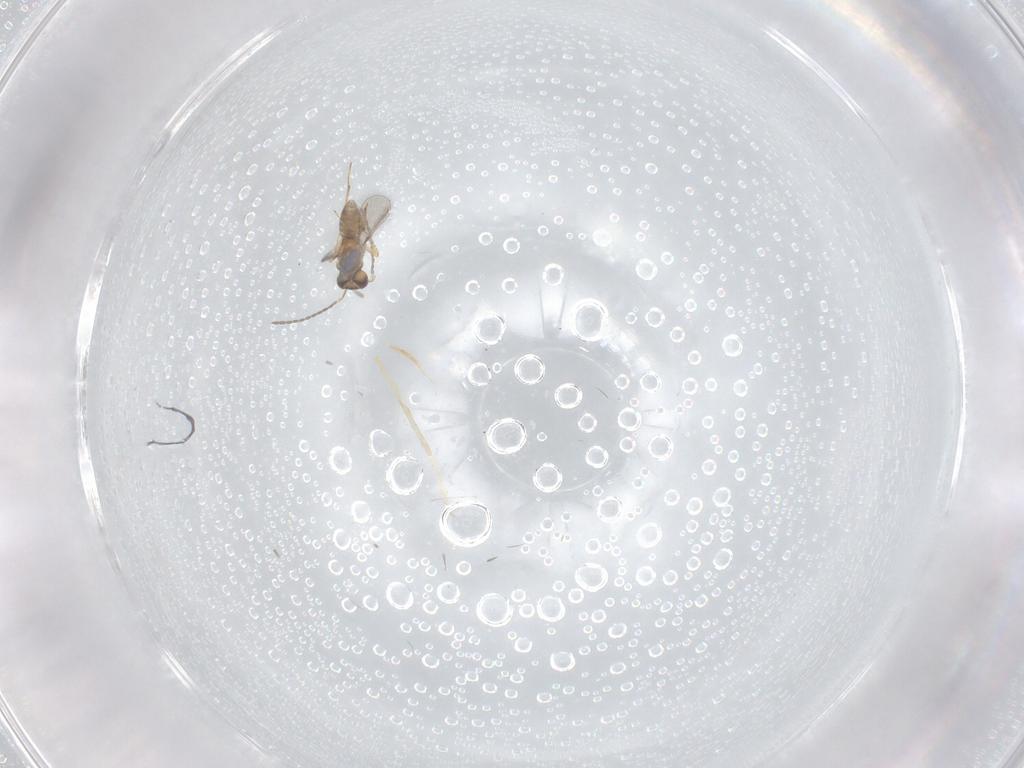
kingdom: Animalia
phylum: Arthropoda
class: Insecta
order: Hymenoptera
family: Mymaridae
